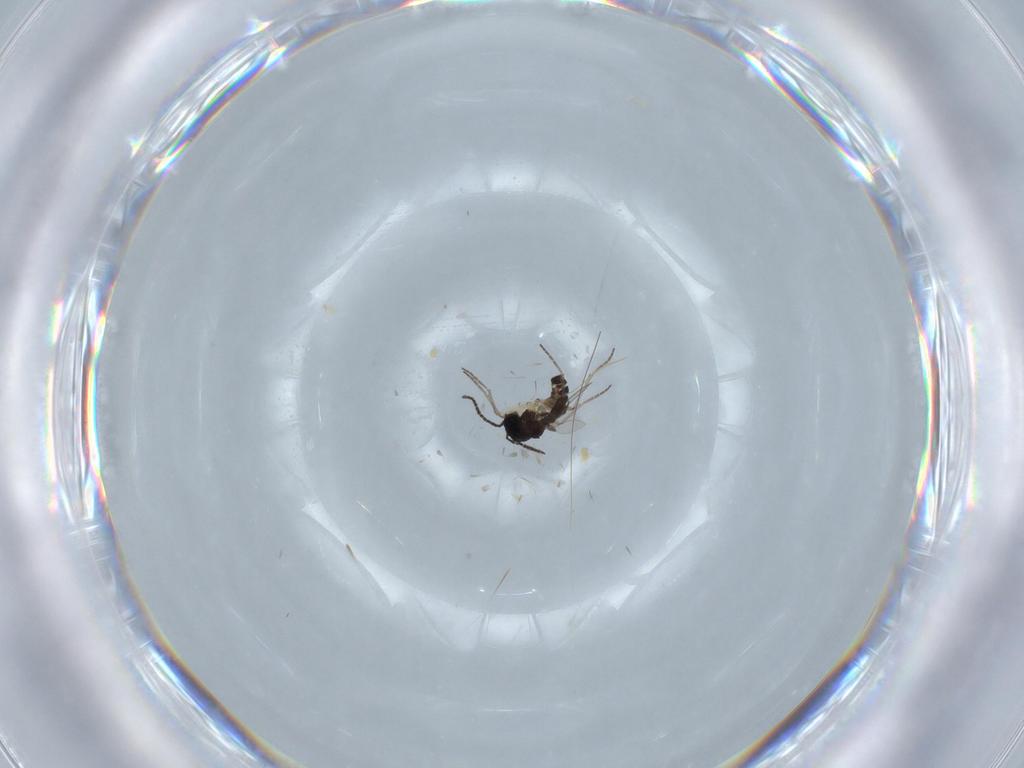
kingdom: Animalia
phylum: Arthropoda
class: Insecta
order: Diptera
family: Sciaridae
